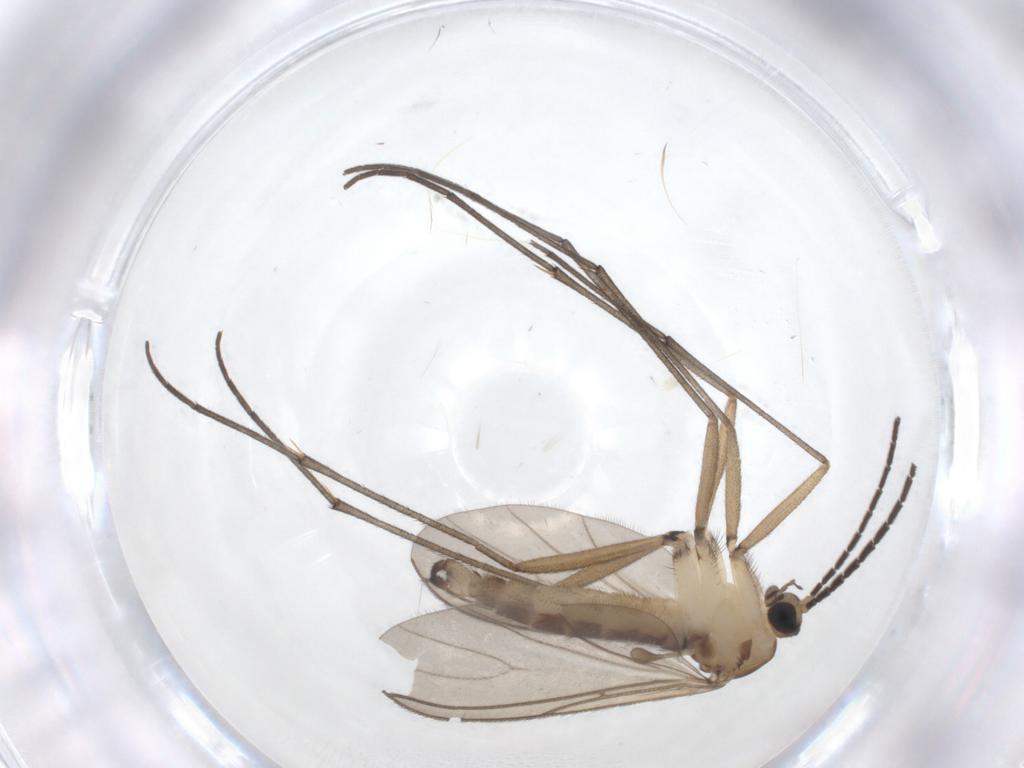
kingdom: Animalia
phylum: Arthropoda
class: Insecta
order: Diptera
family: Sciaridae
